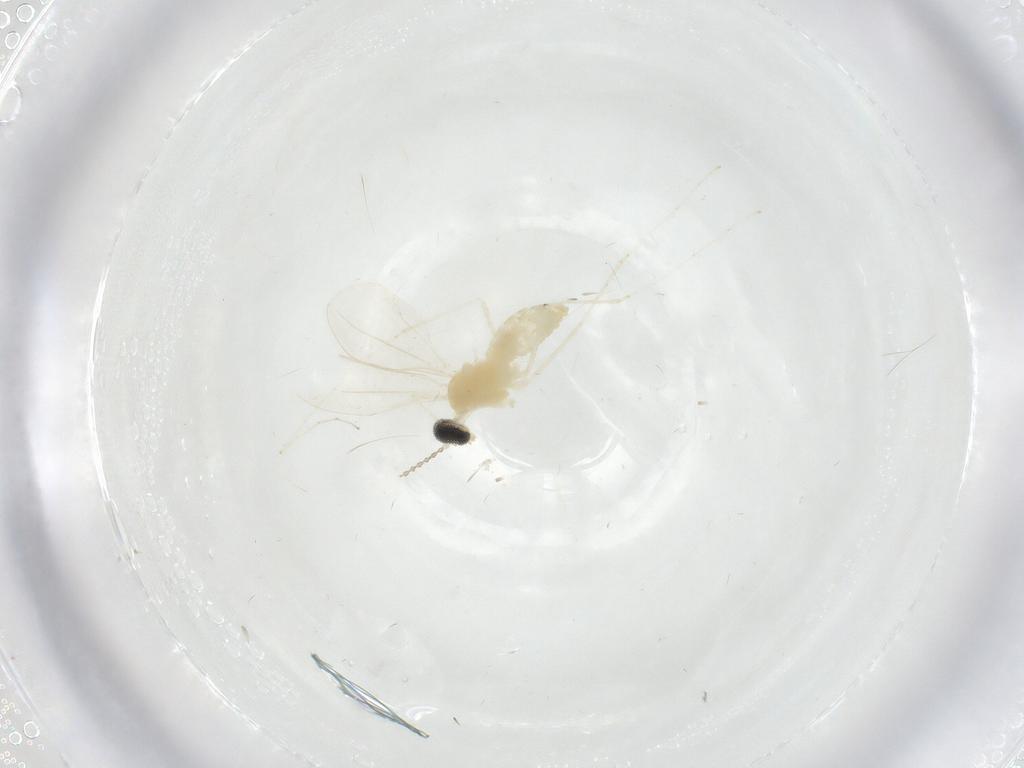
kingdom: Animalia
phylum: Arthropoda
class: Insecta
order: Diptera
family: Cecidomyiidae
